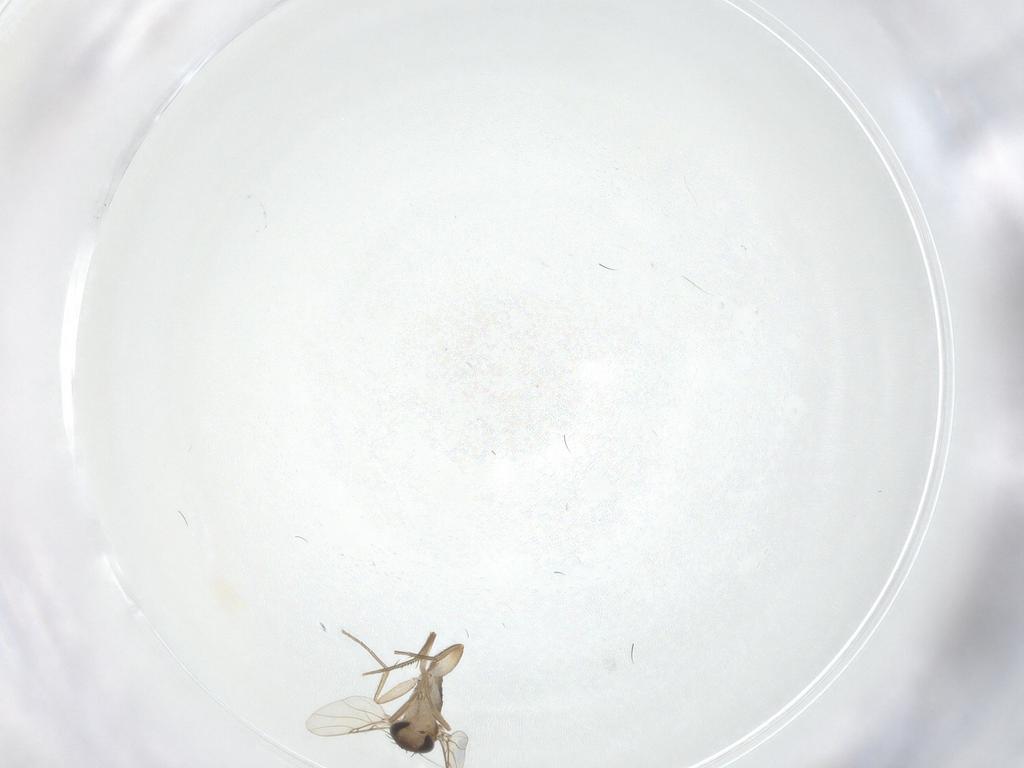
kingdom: Animalia
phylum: Arthropoda
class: Insecta
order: Diptera
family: Phoridae
